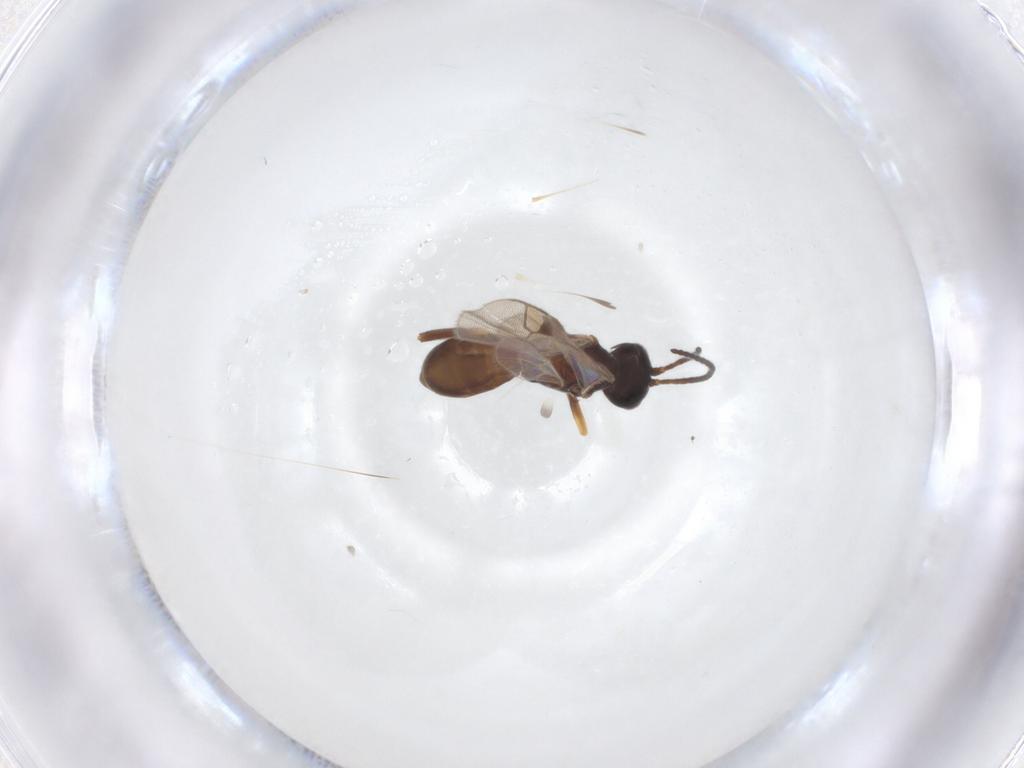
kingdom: Animalia
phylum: Arthropoda
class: Insecta
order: Hymenoptera
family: Braconidae
